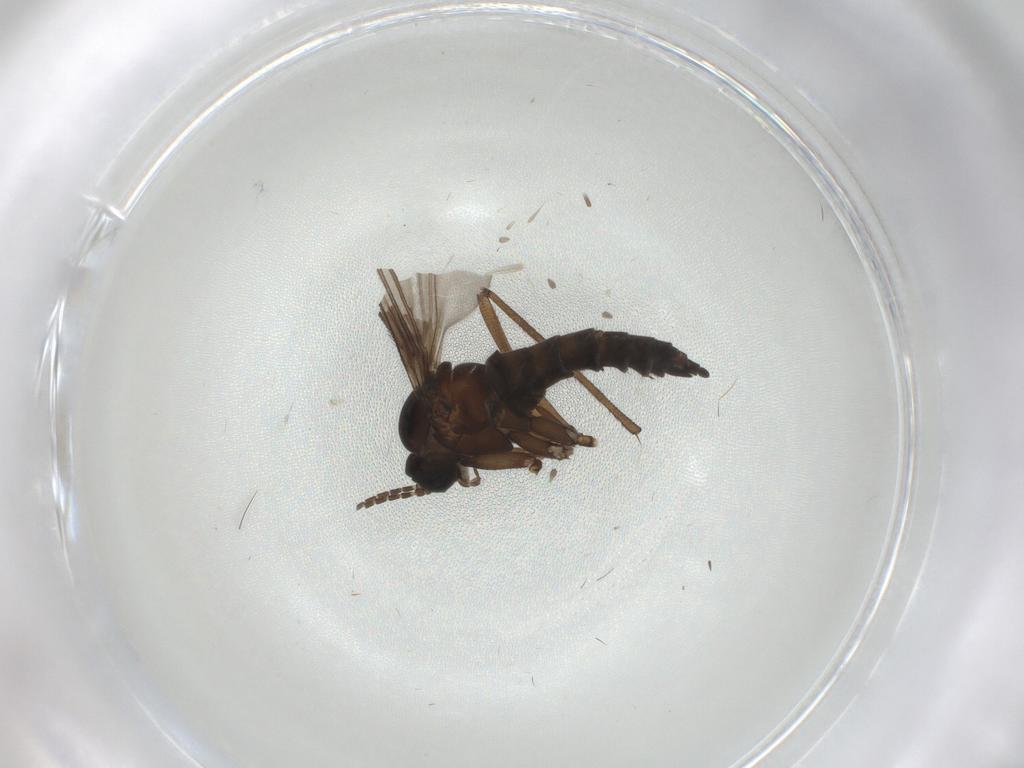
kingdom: Animalia
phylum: Arthropoda
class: Insecta
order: Diptera
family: Sciaridae
